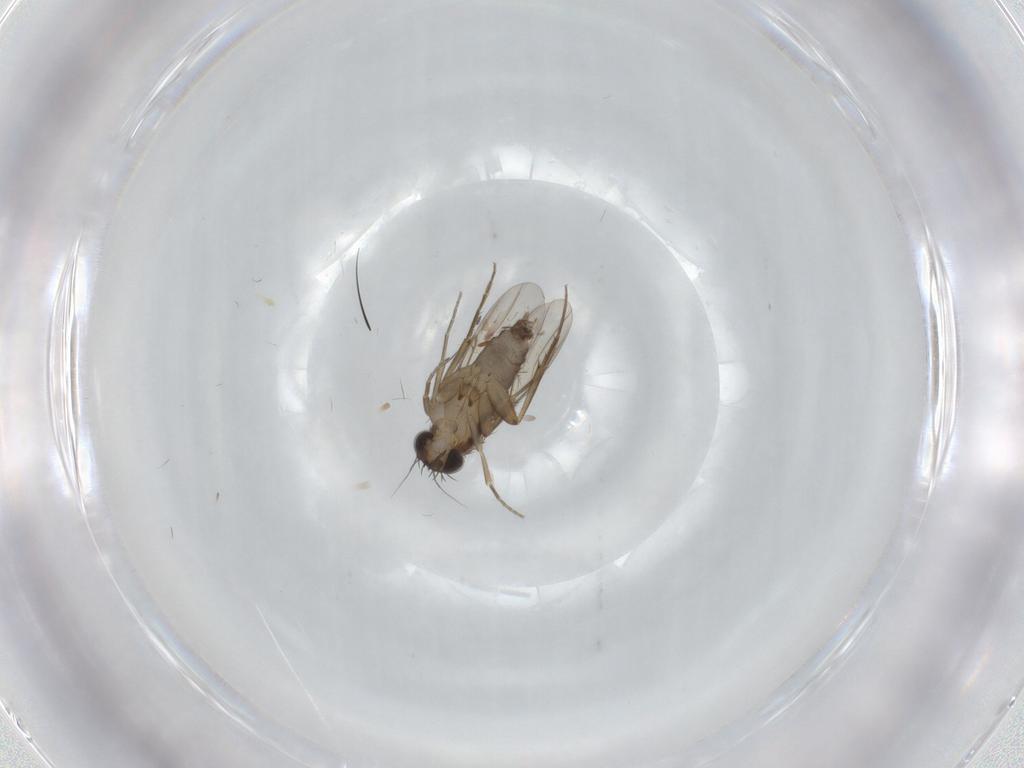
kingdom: Animalia
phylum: Arthropoda
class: Insecta
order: Diptera
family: Phoridae
